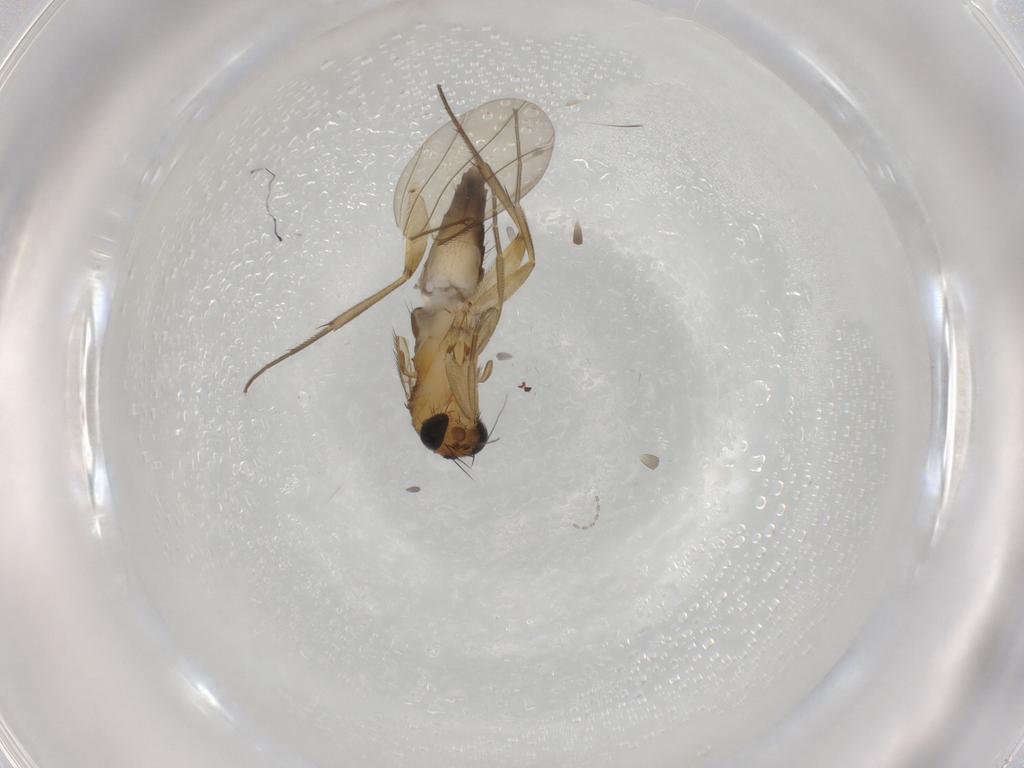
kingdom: Animalia
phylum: Arthropoda
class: Insecta
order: Diptera
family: Phoridae
